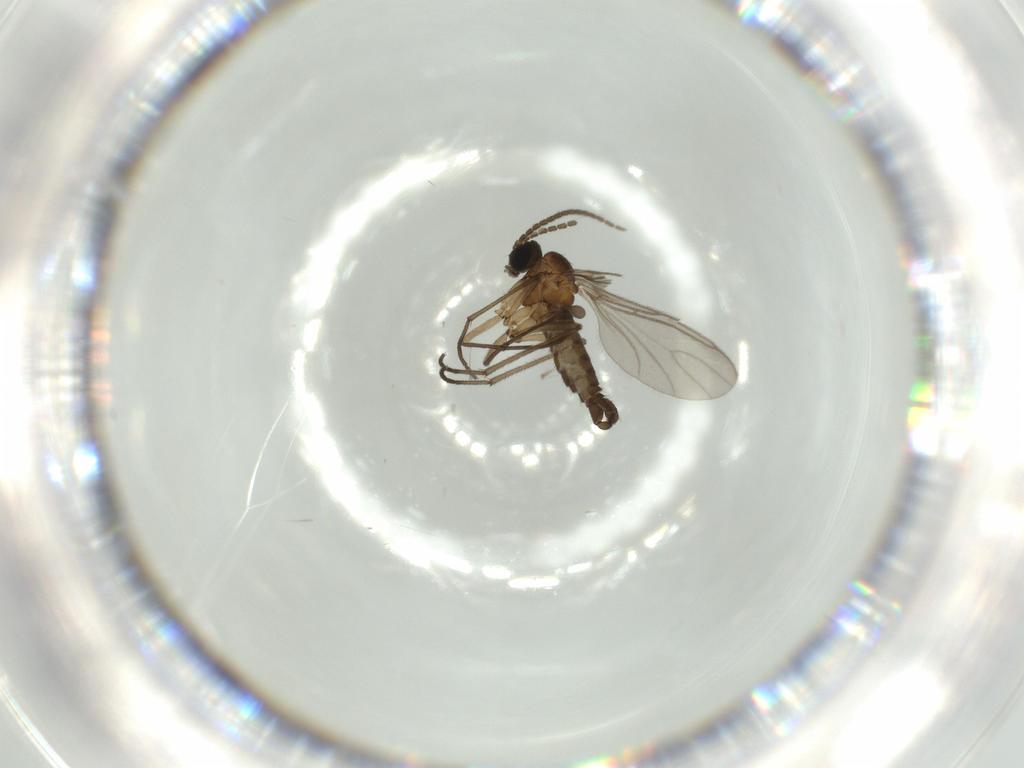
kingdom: Animalia
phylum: Arthropoda
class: Insecta
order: Diptera
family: Sciaridae
